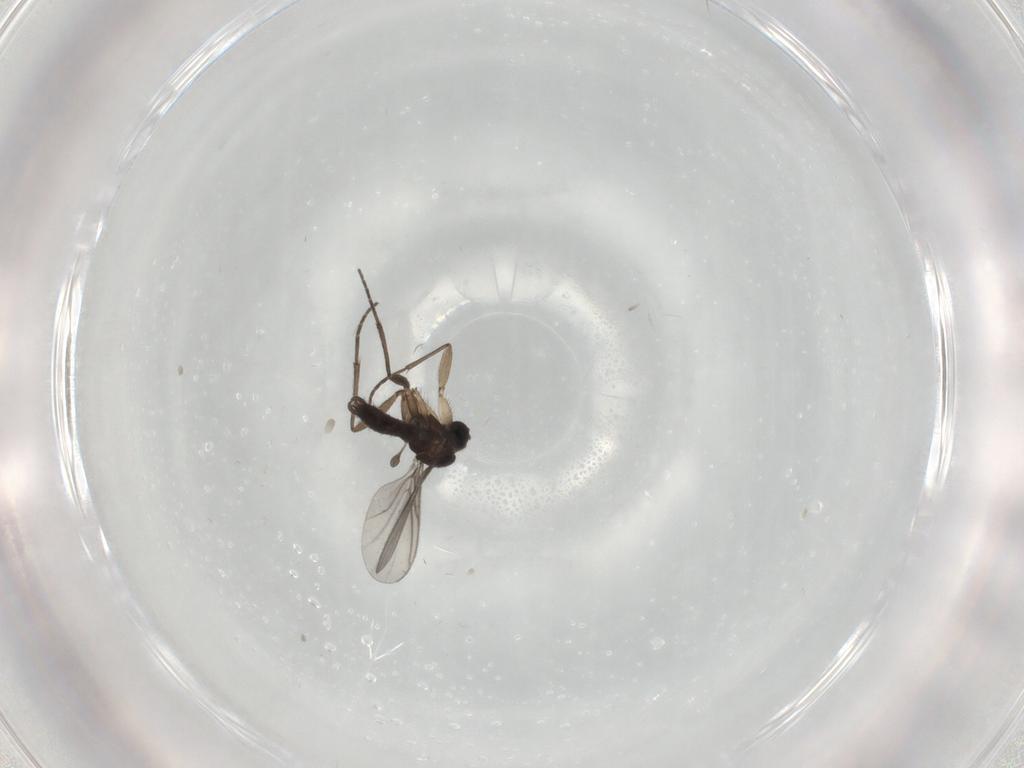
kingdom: Animalia
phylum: Arthropoda
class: Insecta
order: Diptera
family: Sciaridae
